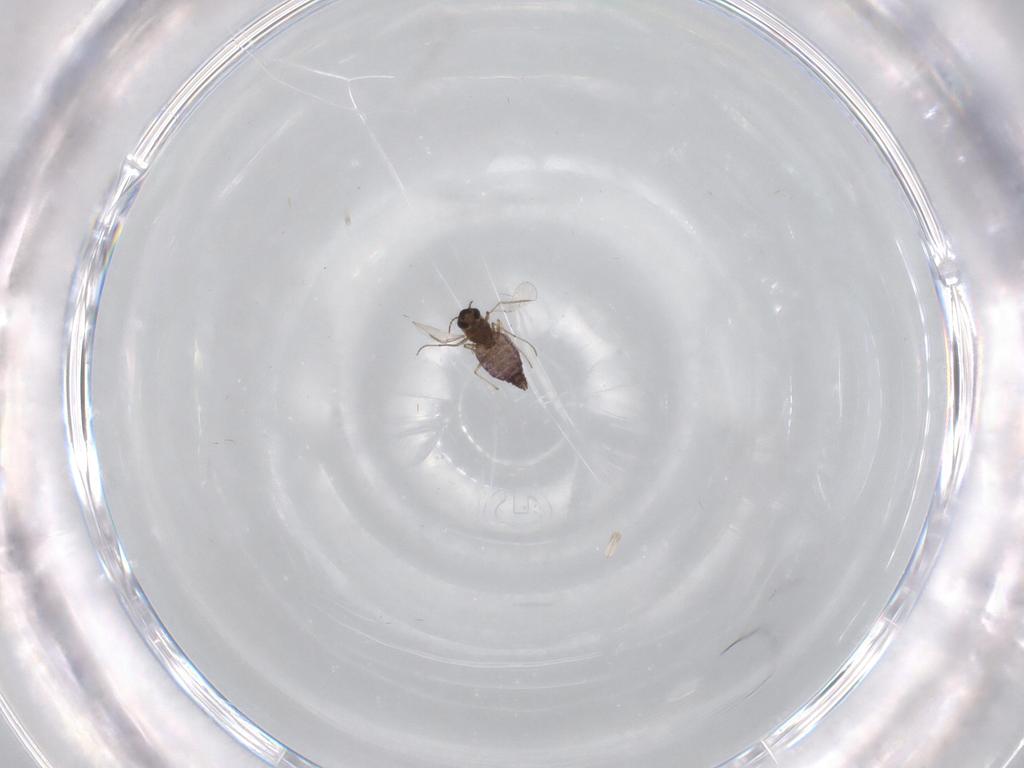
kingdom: Animalia
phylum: Arthropoda
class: Insecta
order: Diptera
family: Chironomidae
